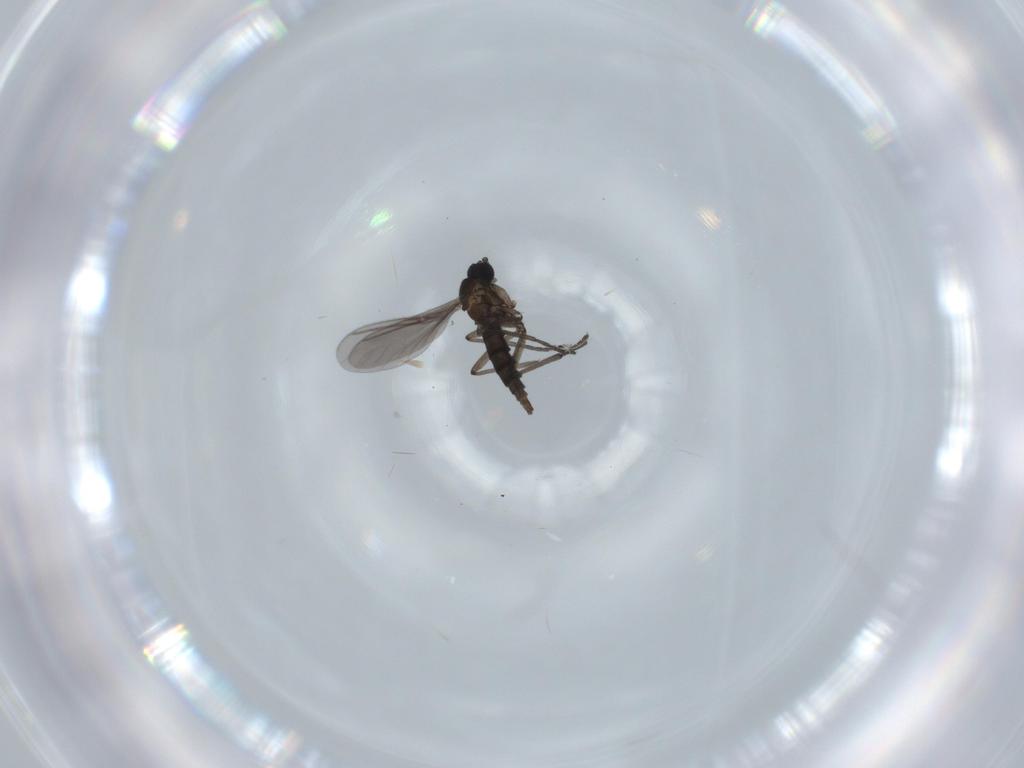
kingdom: Animalia
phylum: Arthropoda
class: Insecta
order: Diptera
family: Sciaridae
